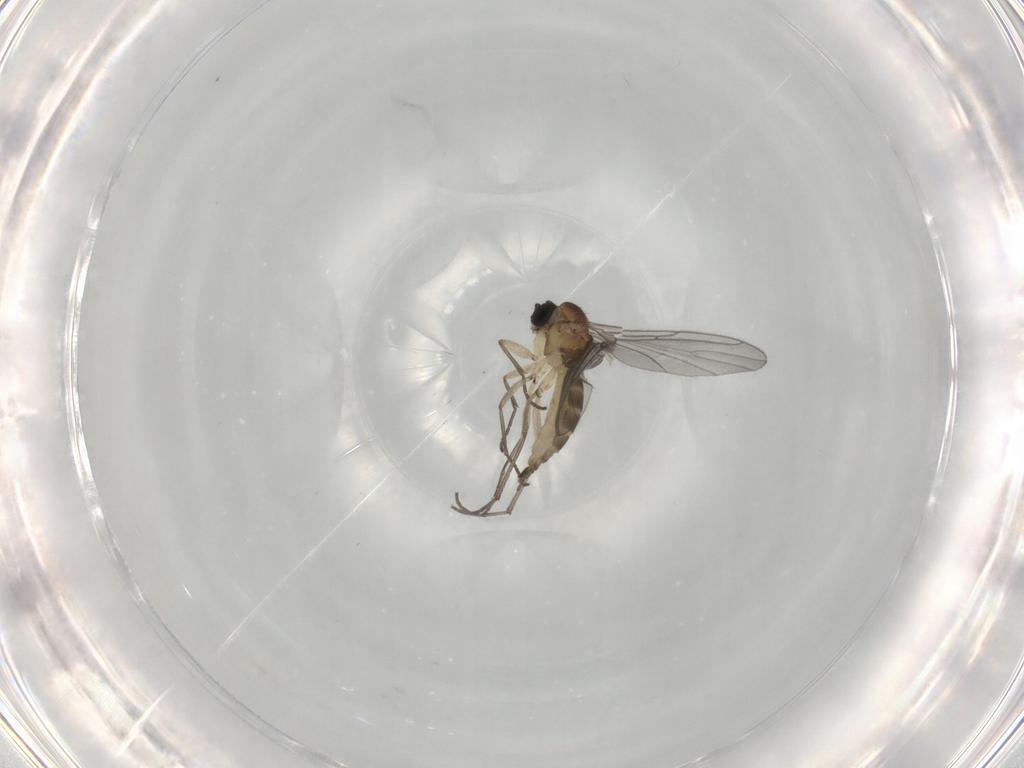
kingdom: Animalia
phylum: Arthropoda
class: Insecta
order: Diptera
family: Sciaridae
